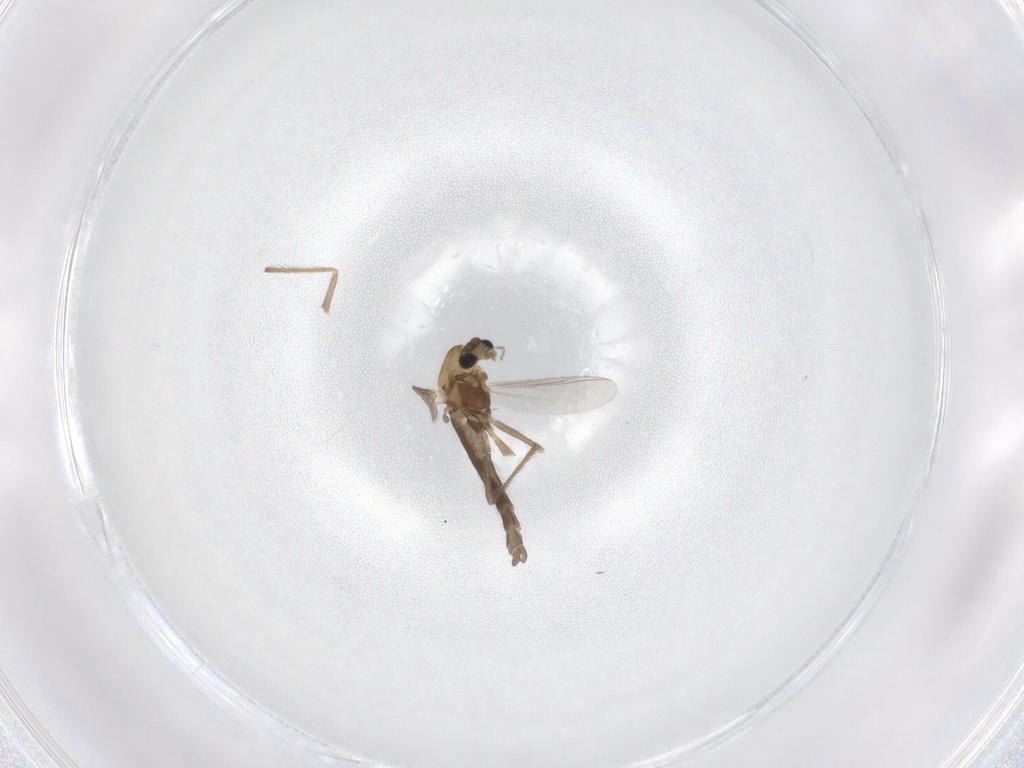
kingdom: Animalia
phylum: Arthropoda
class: Insecta
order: Diptera
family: Chironomidae
